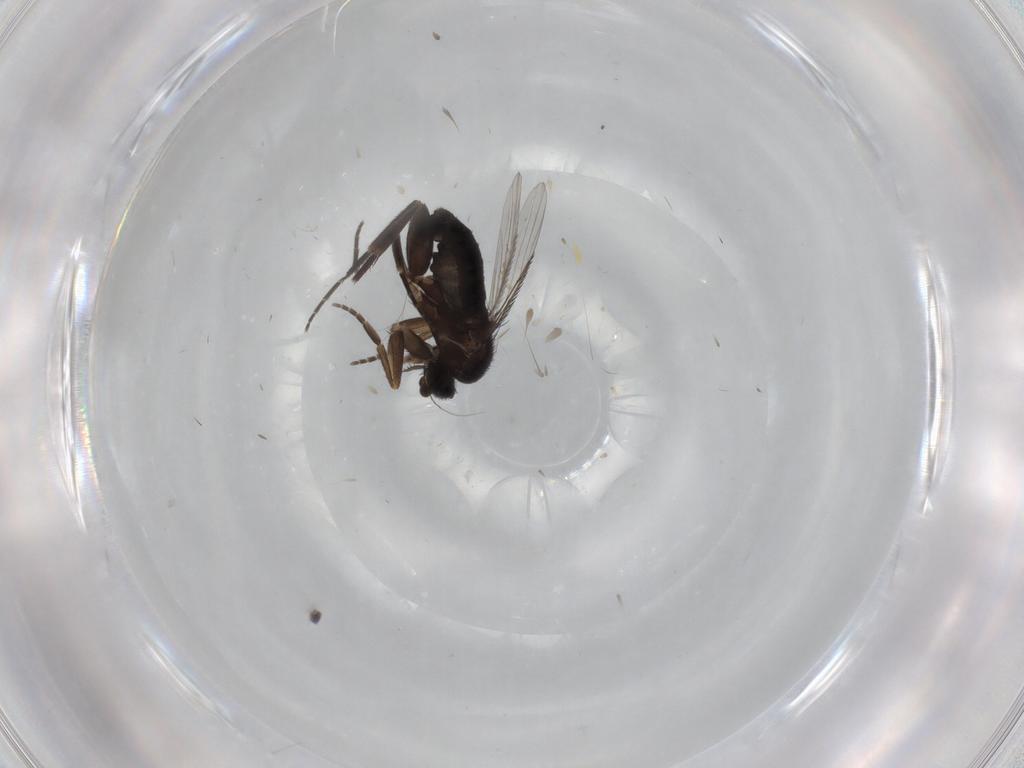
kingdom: Animalia
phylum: Arthropoda
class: Insecta
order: Diptera
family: Phoridae
